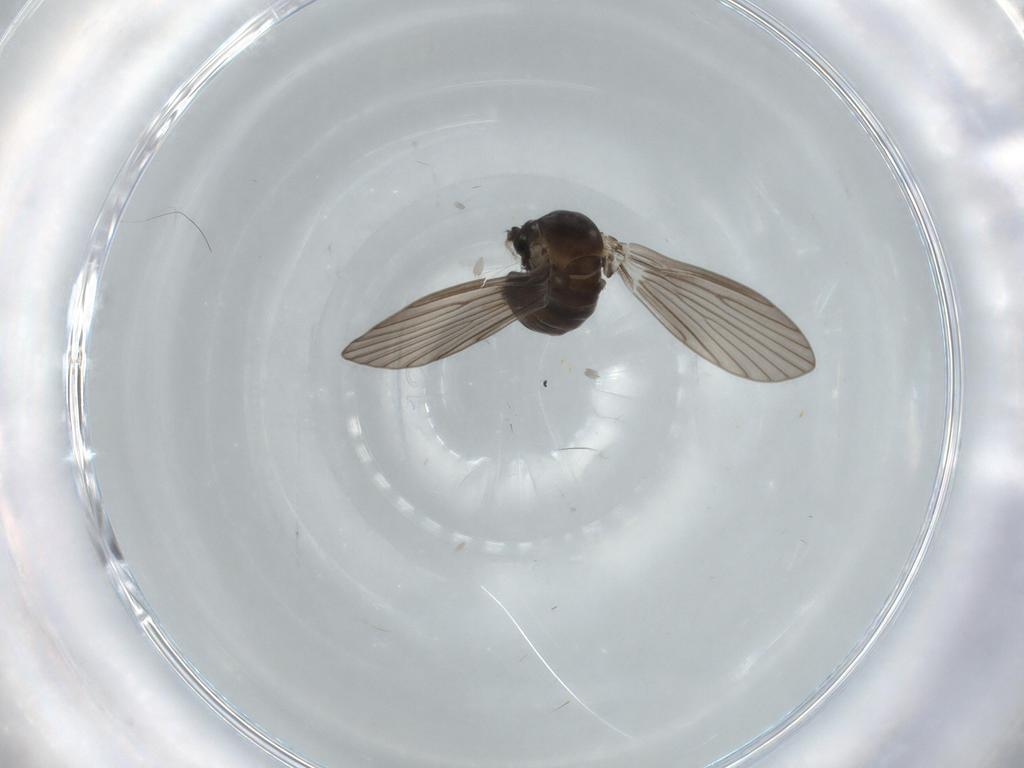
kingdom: Animalia
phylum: Arthropoda
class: Insecta
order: Diptera
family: Psychodidae
